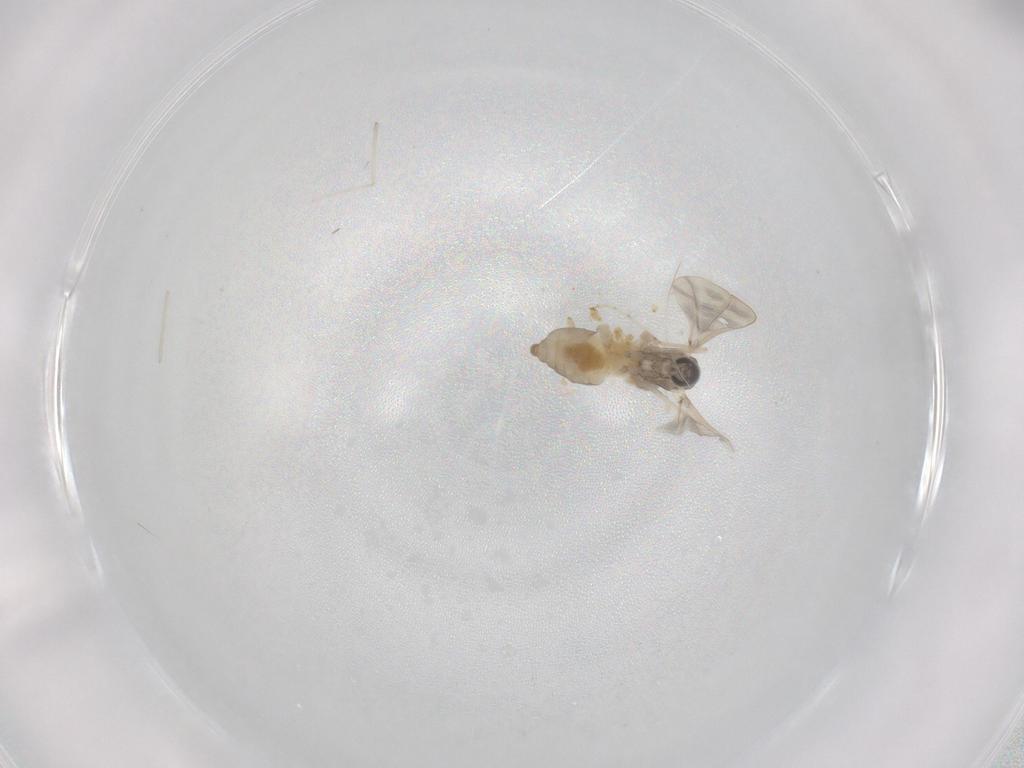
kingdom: Animalia
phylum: Arthropoda
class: Insecta
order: Diptera
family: Cecidomyiidae
